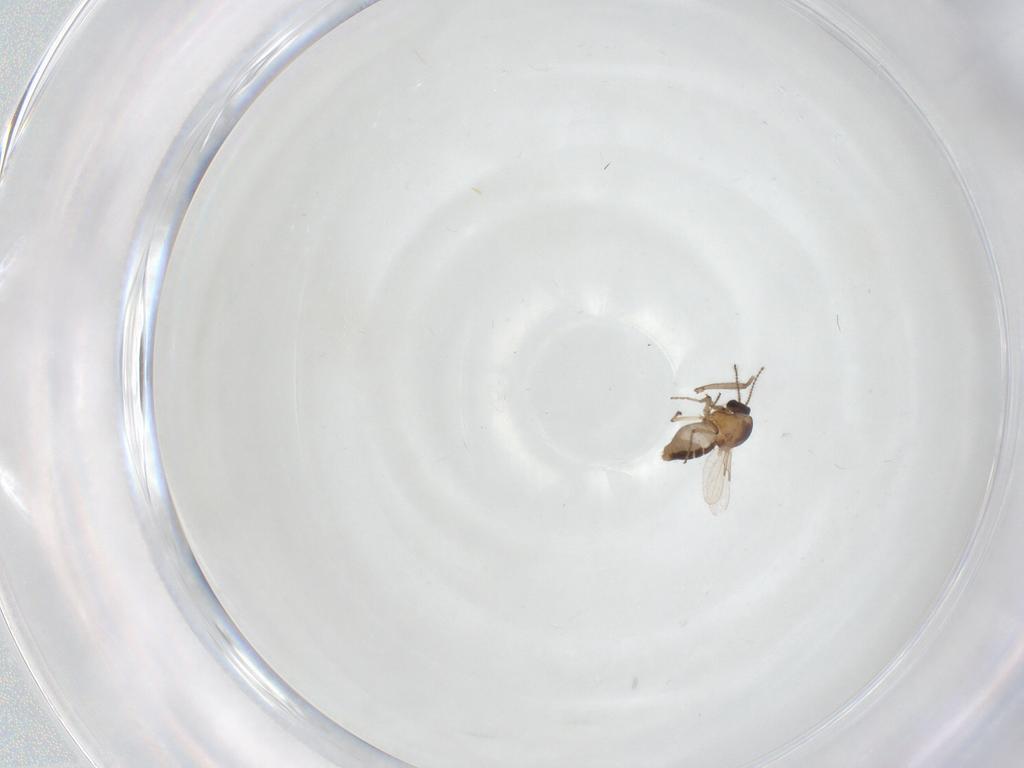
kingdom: Animalia
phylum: Arthropoda
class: Insecta
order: Diptera
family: Ceratopogonidae
